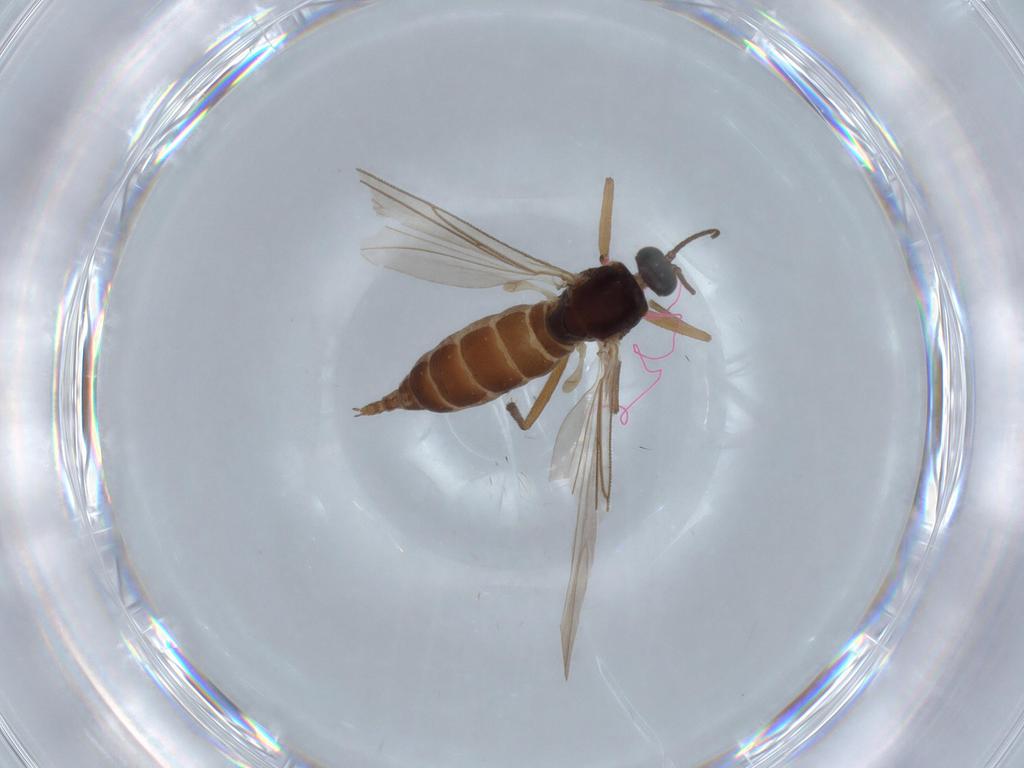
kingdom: Animalia
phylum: Arthropoda
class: Insecta
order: Diptera
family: Sciaridae
